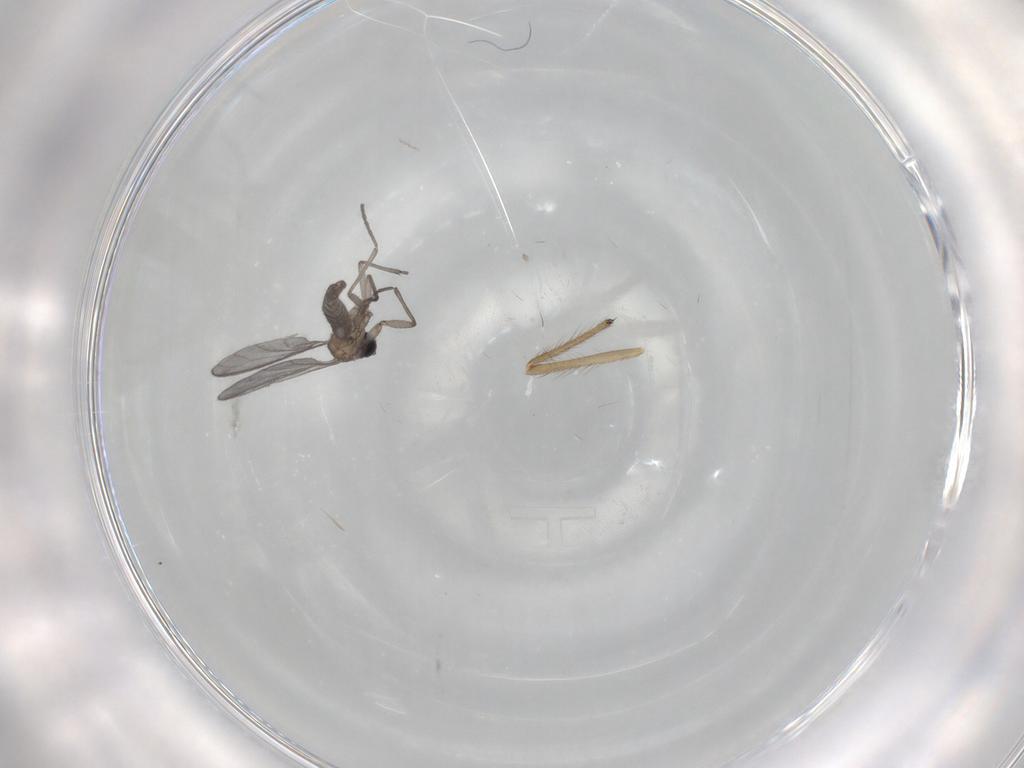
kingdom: Animalia
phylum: Arthropoda
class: Insecta
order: Diptera
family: Sciaridae
